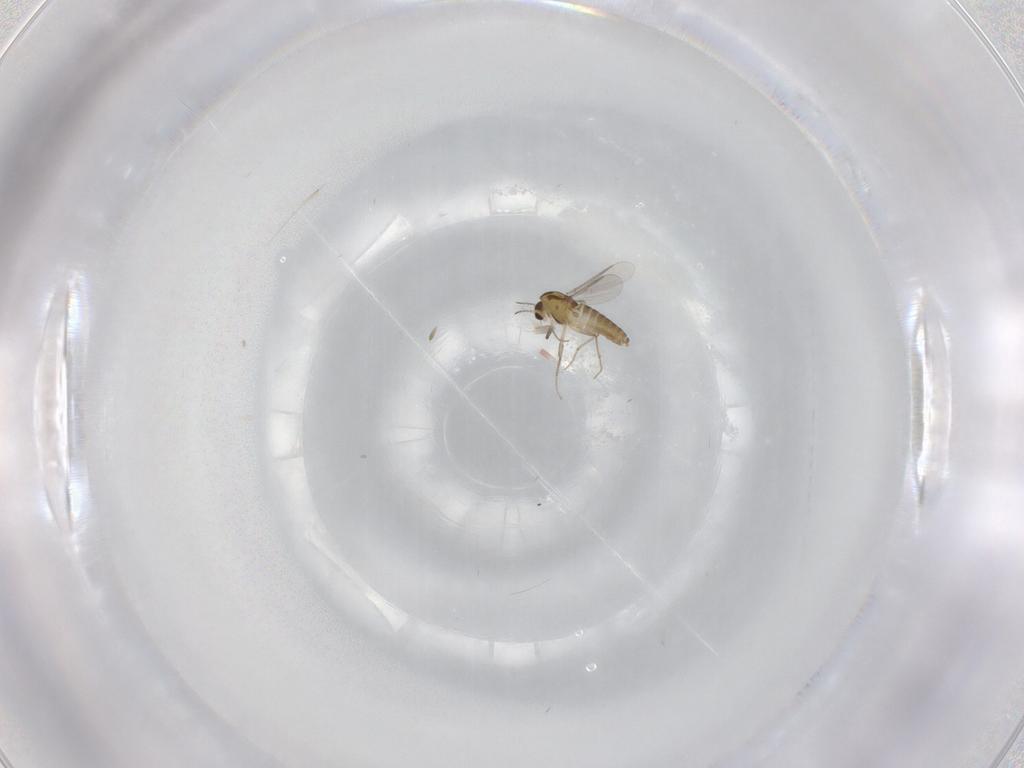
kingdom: Animalia
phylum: Arthropoda
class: Insecta
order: Diptera
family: Chironomidae
